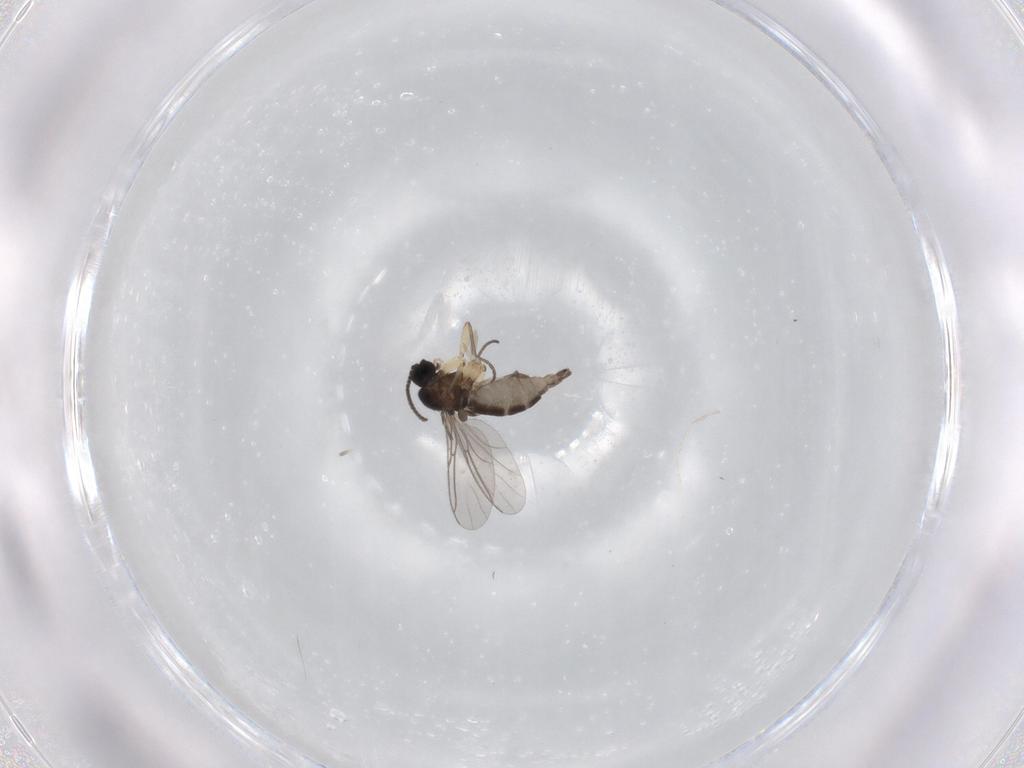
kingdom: Animalia
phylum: Arthropoda
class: Insecta
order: Diptera
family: Sciaridae
